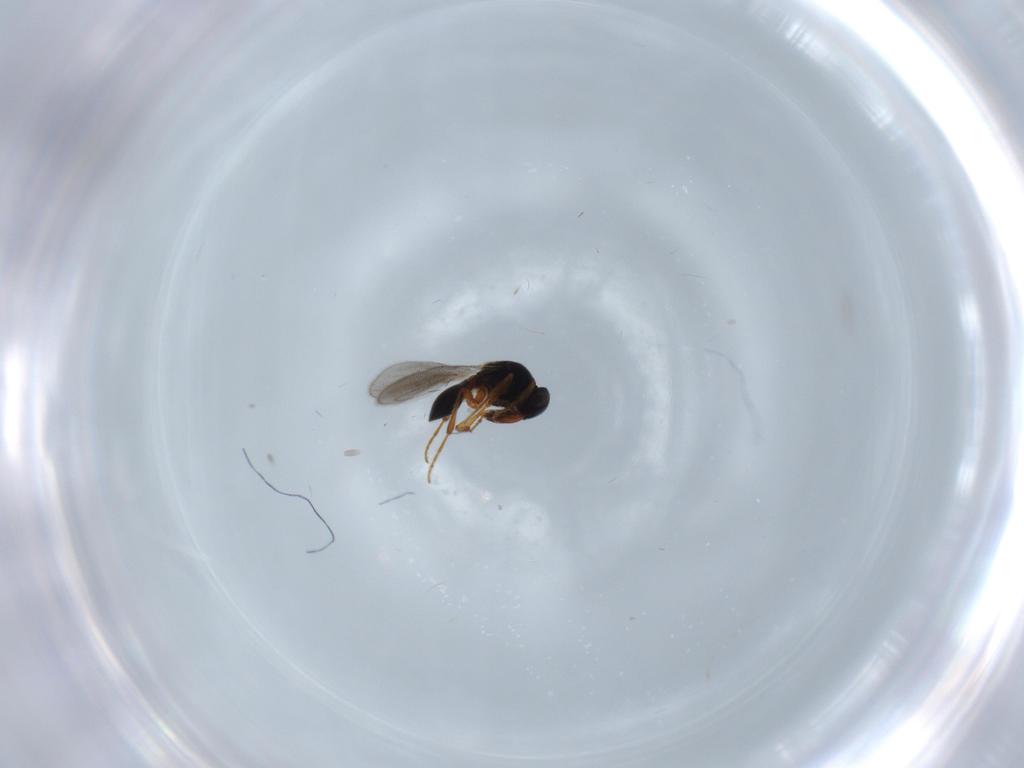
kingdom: Animalia
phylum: Arthropoda
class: Insecta
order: Hymenoptera
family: Platygastridae
